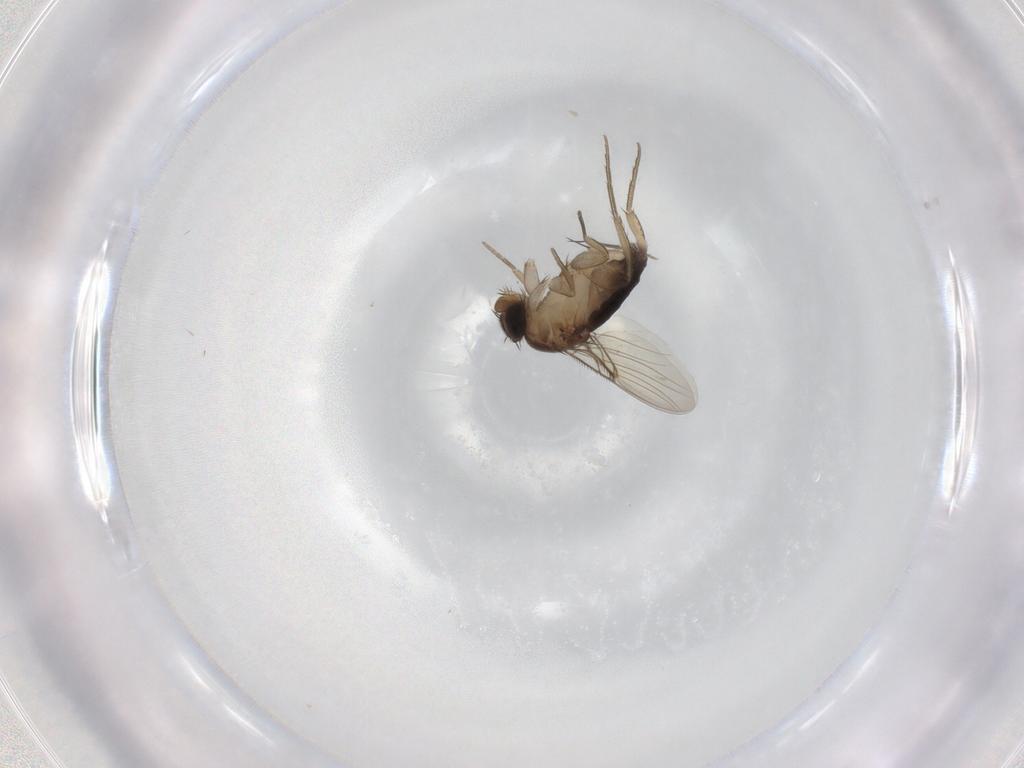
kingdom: Animalia
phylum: Arthropoda
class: Insecta
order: Diptera
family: Phoridae
